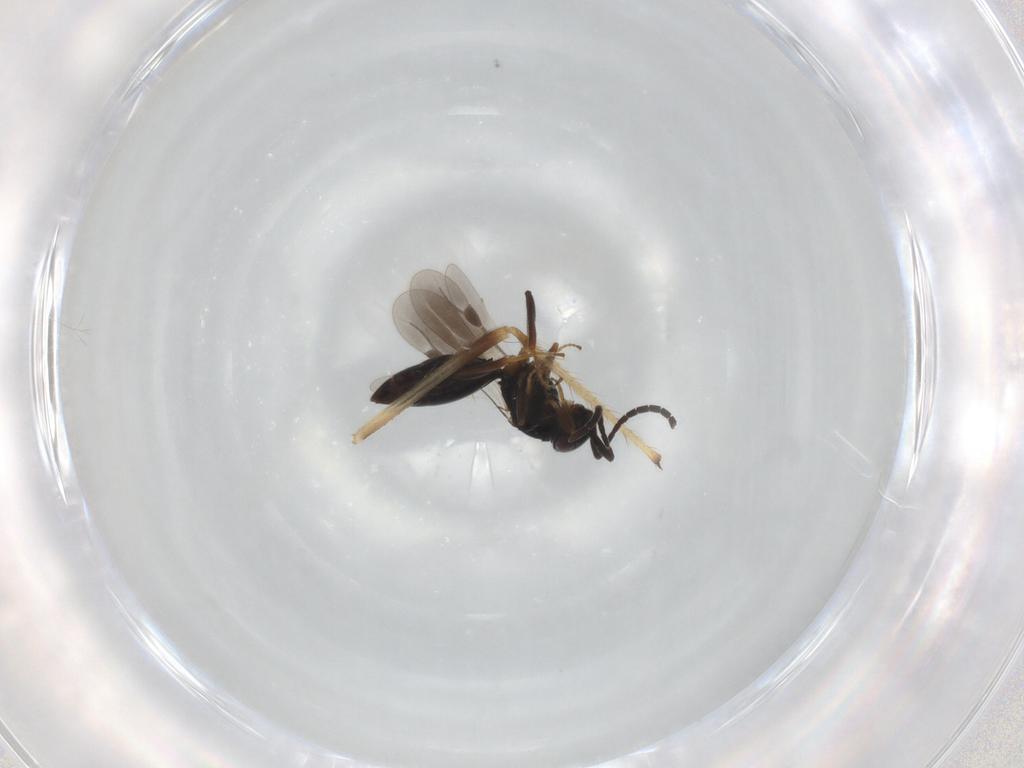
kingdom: Animalia
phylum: Arthropoda
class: Insecta
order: Hymenoptera
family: Scelionidae
